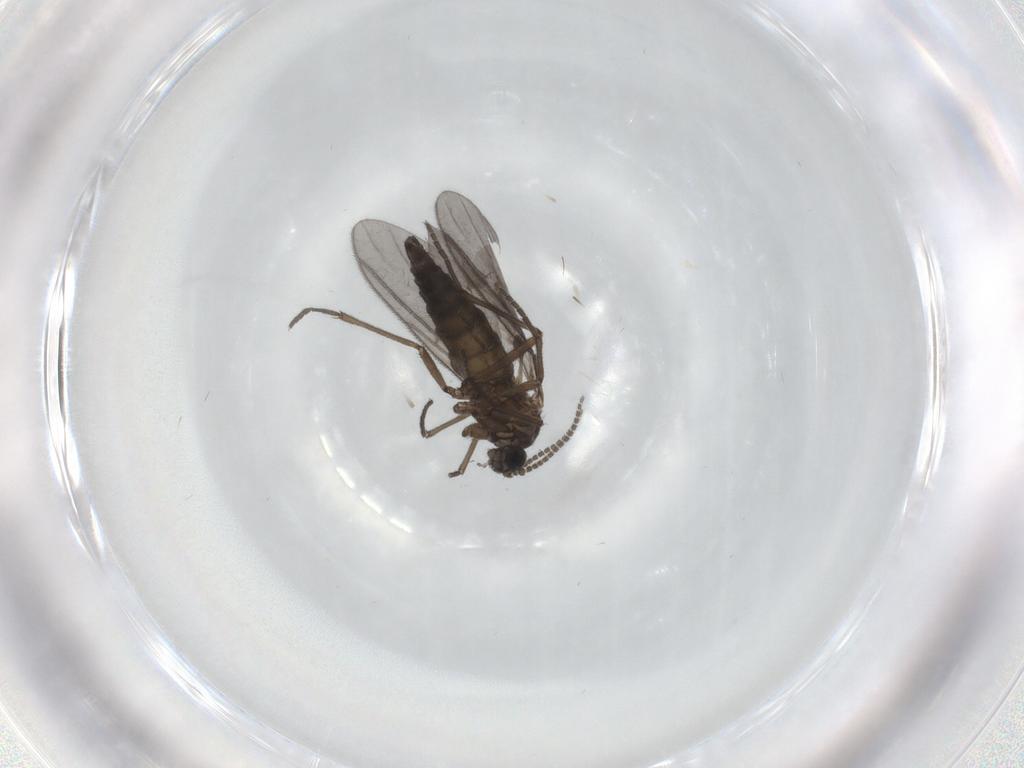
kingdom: Animalia
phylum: Arthropoda
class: Insecta
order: Diptera
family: Sciaridae
